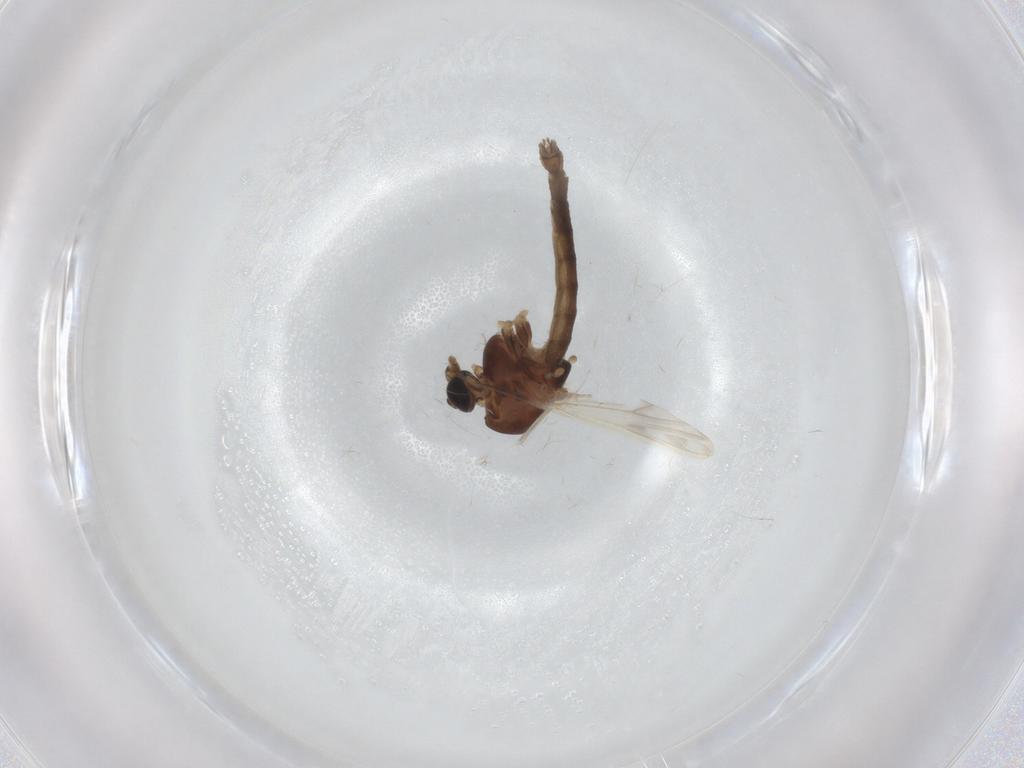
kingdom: Animalia
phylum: Arthropoda
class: Insecta
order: Diptera
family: Chironomidae
